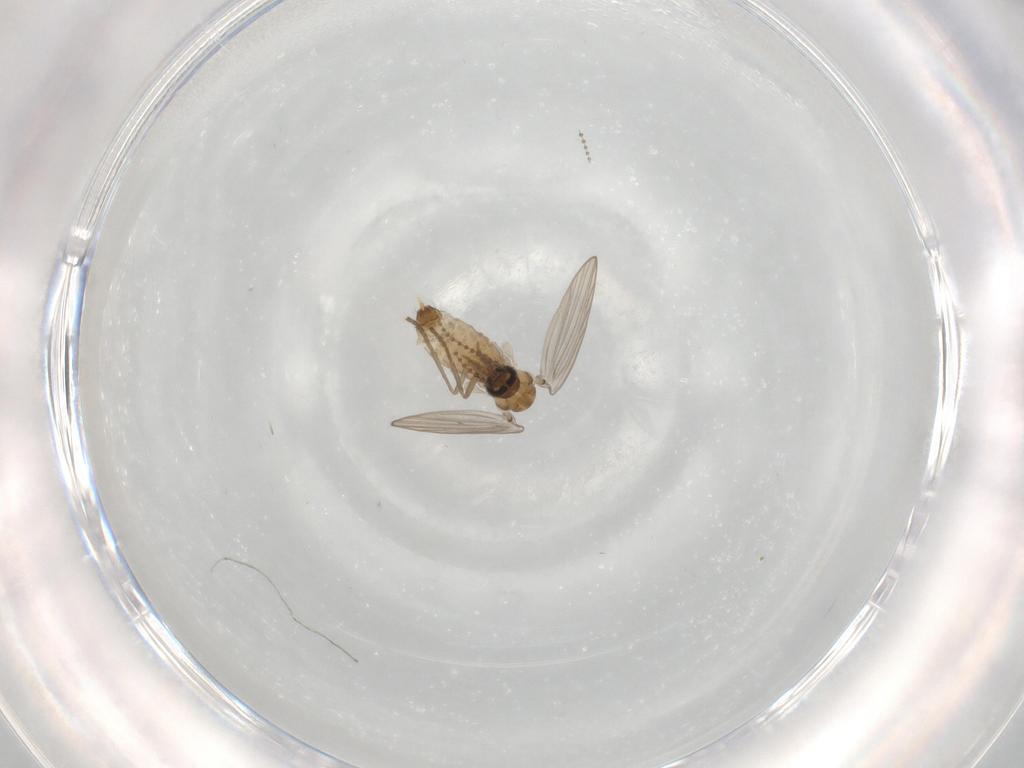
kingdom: Animalia
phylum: Arthropoda
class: Insecta
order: Diptera
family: Psychodidae
